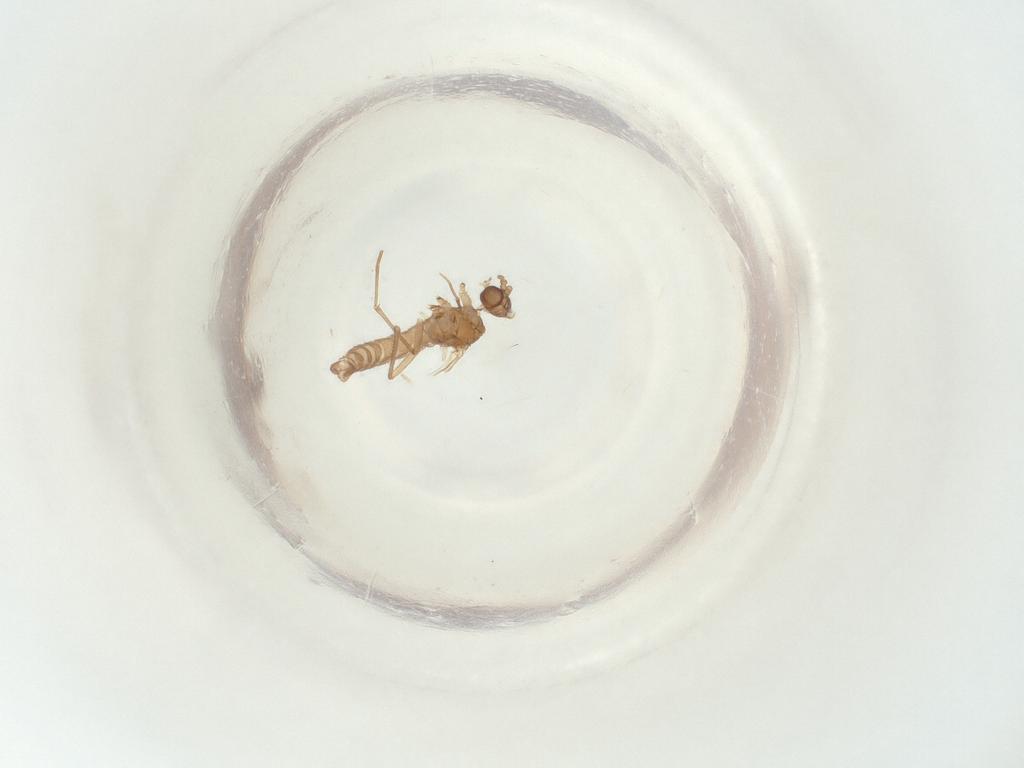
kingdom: Animalia
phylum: Arthropoda
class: Insecta
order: Diptera
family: Sciaridae
